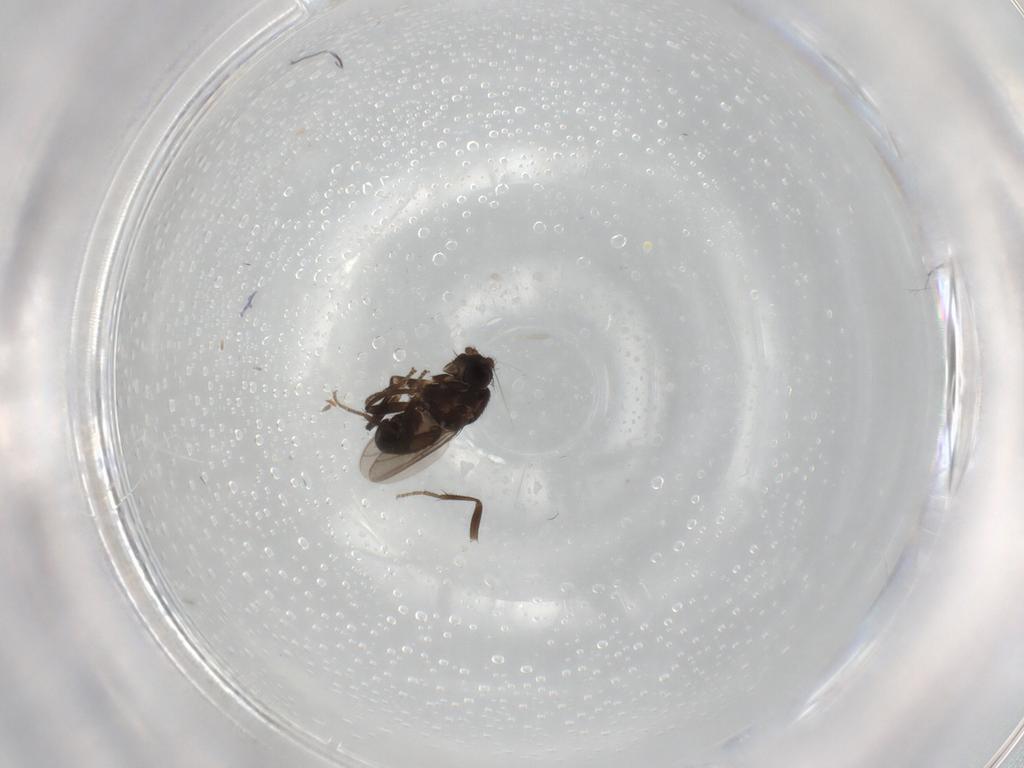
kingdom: Animalia
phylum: Arthropoda
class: Insecta
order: Diptera
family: Sphaeroceridae
